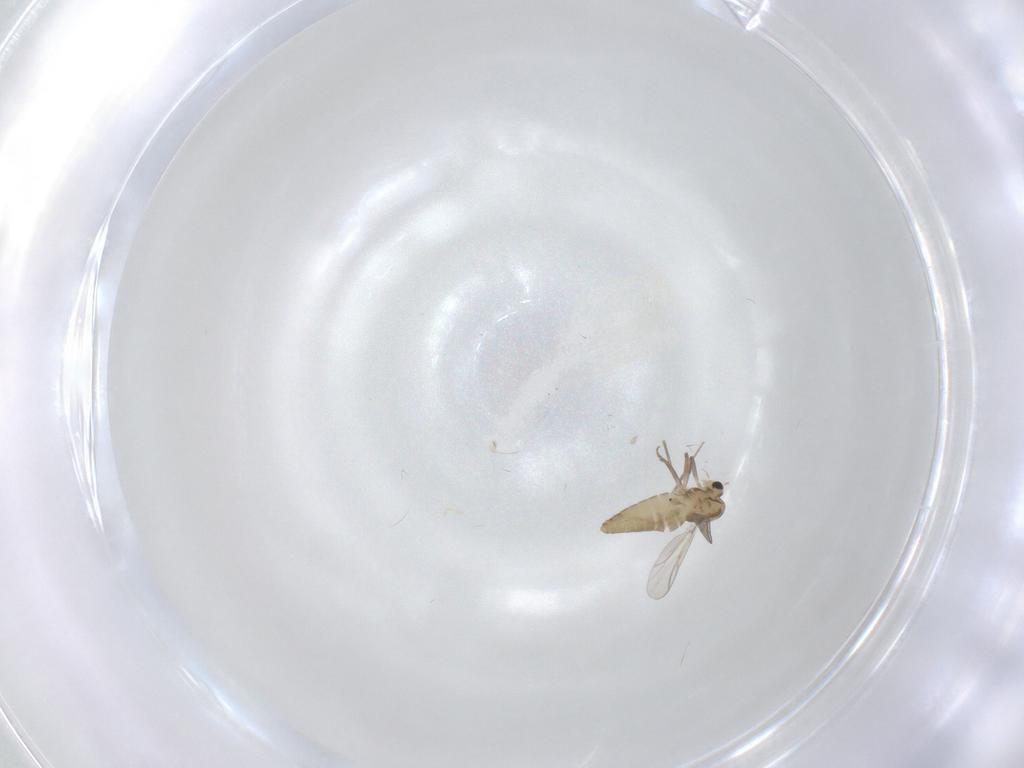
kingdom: Animalia
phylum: Arthropoda
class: Insecta
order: Diptera
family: Chironomidae
